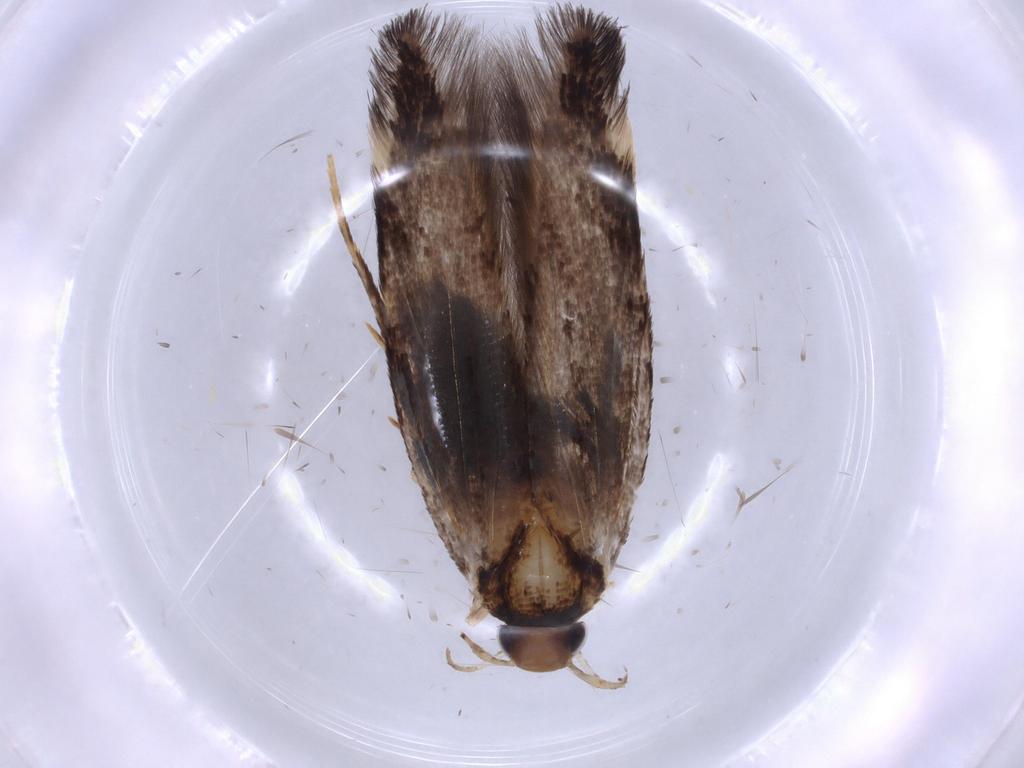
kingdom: Animalia
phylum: Arthropoda
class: Insecta
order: Lepidoptera
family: Cosmopterigidae
